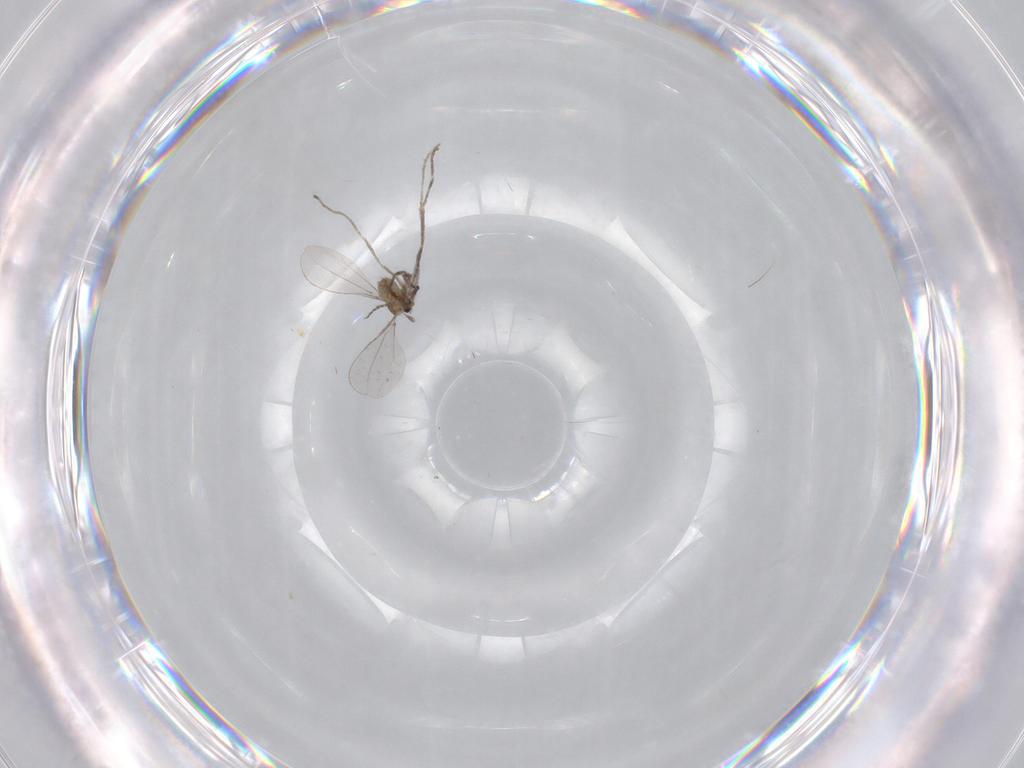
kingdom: Animalia
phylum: Arthropoda
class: Insecta
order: Diptera
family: Cecidomyiidae
